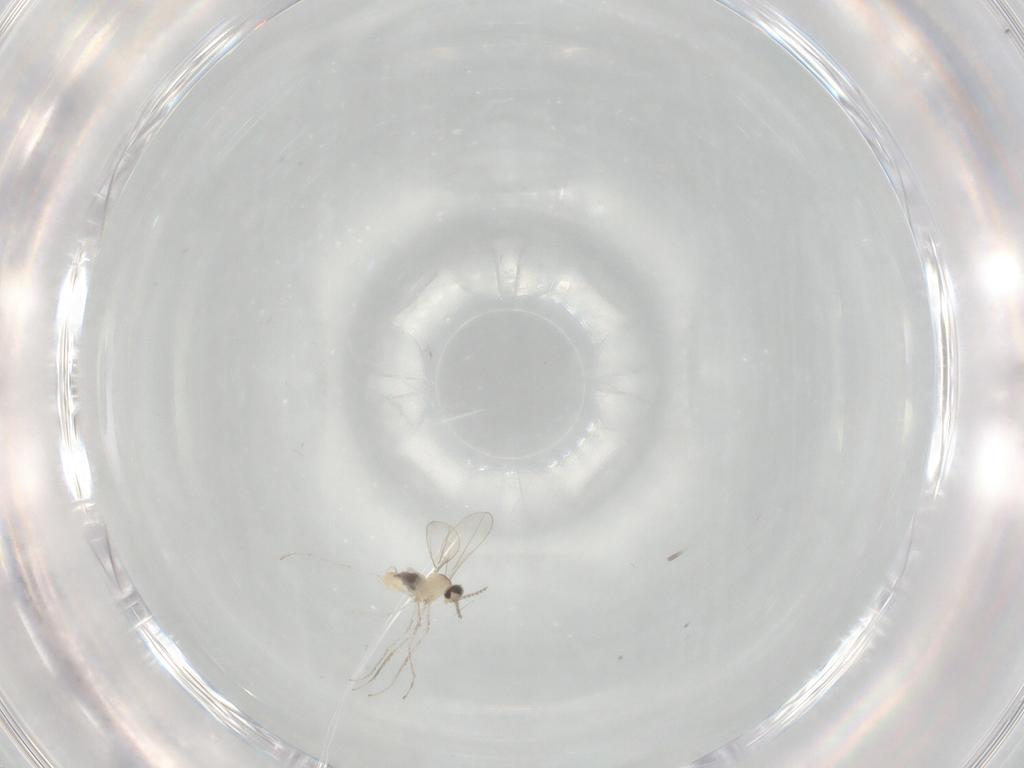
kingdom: Animalia
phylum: Arthropoda
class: Insecta
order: Diptera
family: Cecidomyiidae
